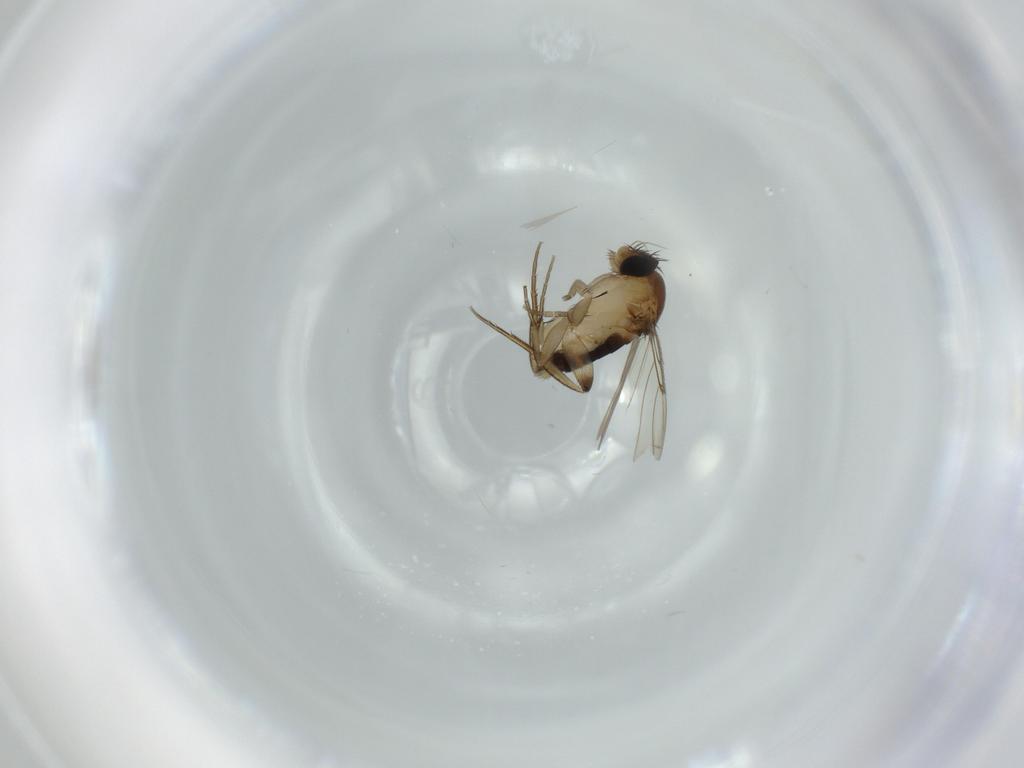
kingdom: Animalia
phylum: Arthropoda
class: Insecta
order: Diptera
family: Phoridae
